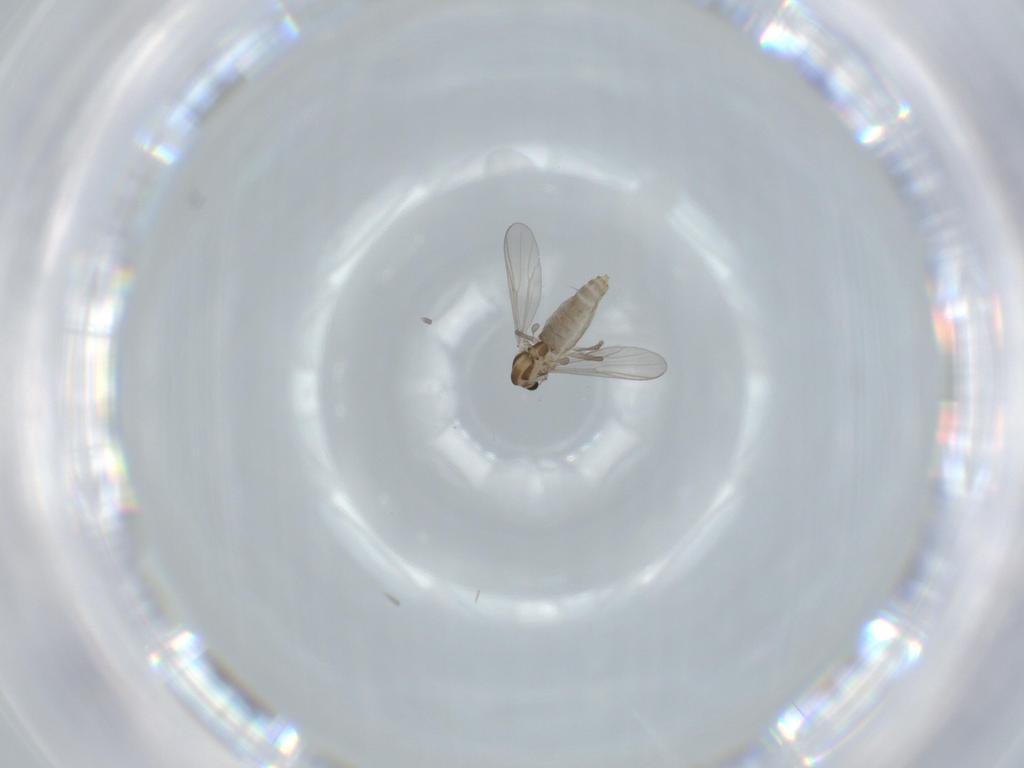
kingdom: Animalia
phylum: Arthropoda
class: Insecta
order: Diptera
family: Chironomidae
